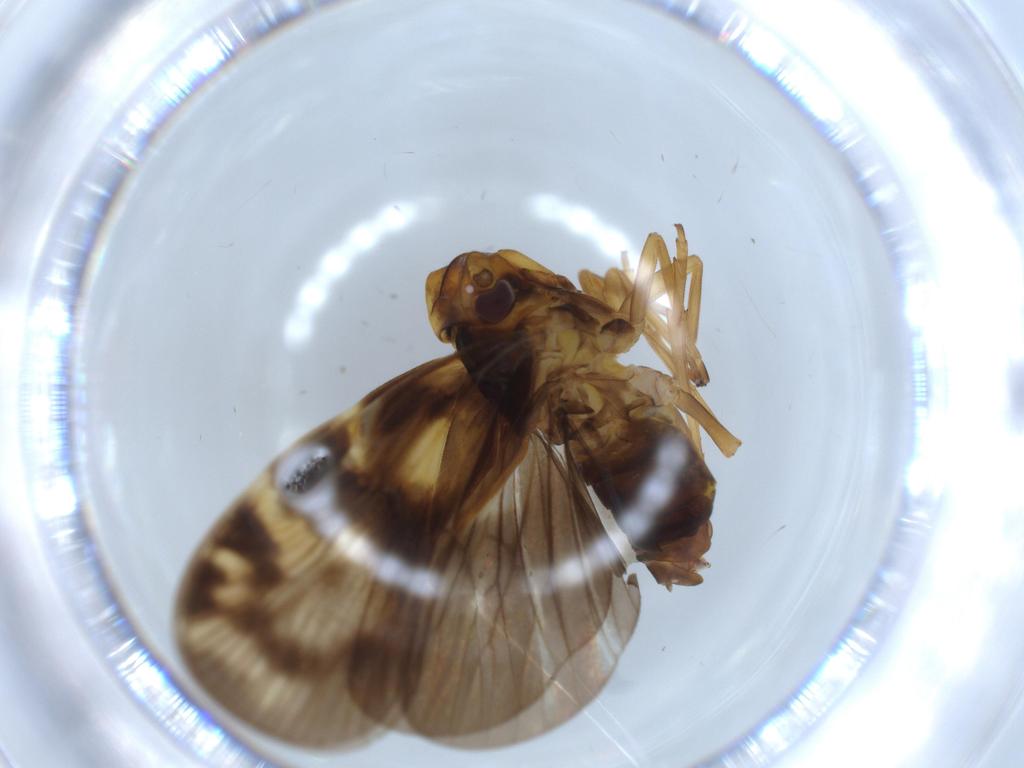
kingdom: Animalia
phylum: Arthropoda
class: Insecta
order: Hemiptera
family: Cixiidae
